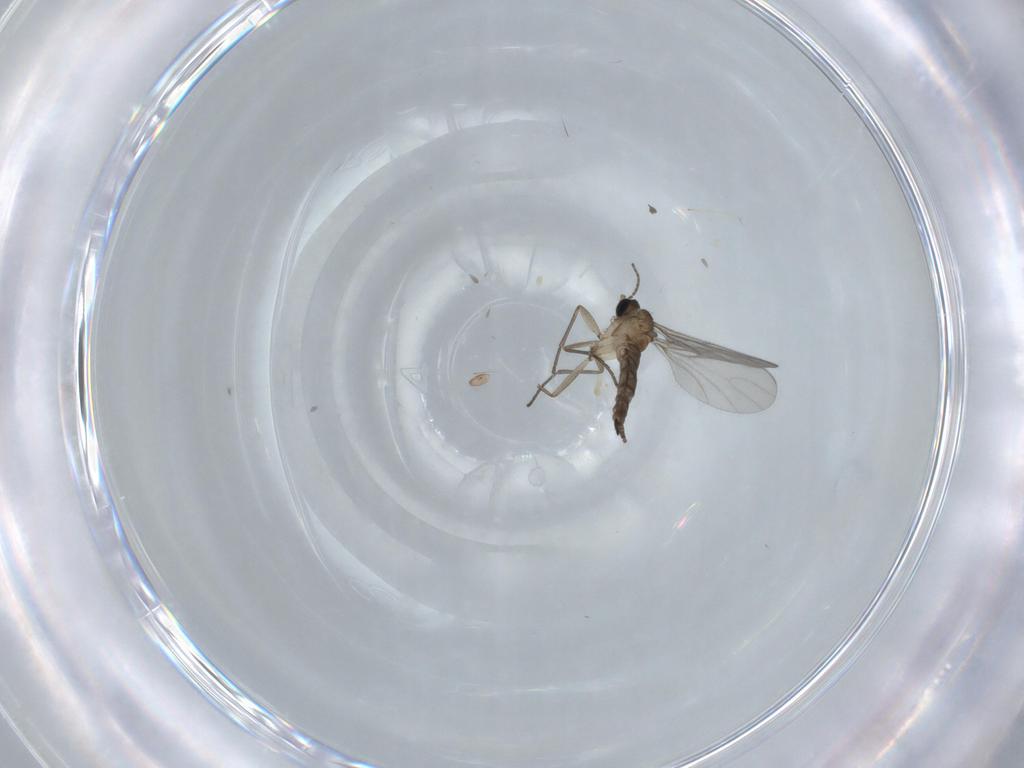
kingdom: Animalia
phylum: Arthropoda
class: Insecta
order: Diptera
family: Sciaridae
